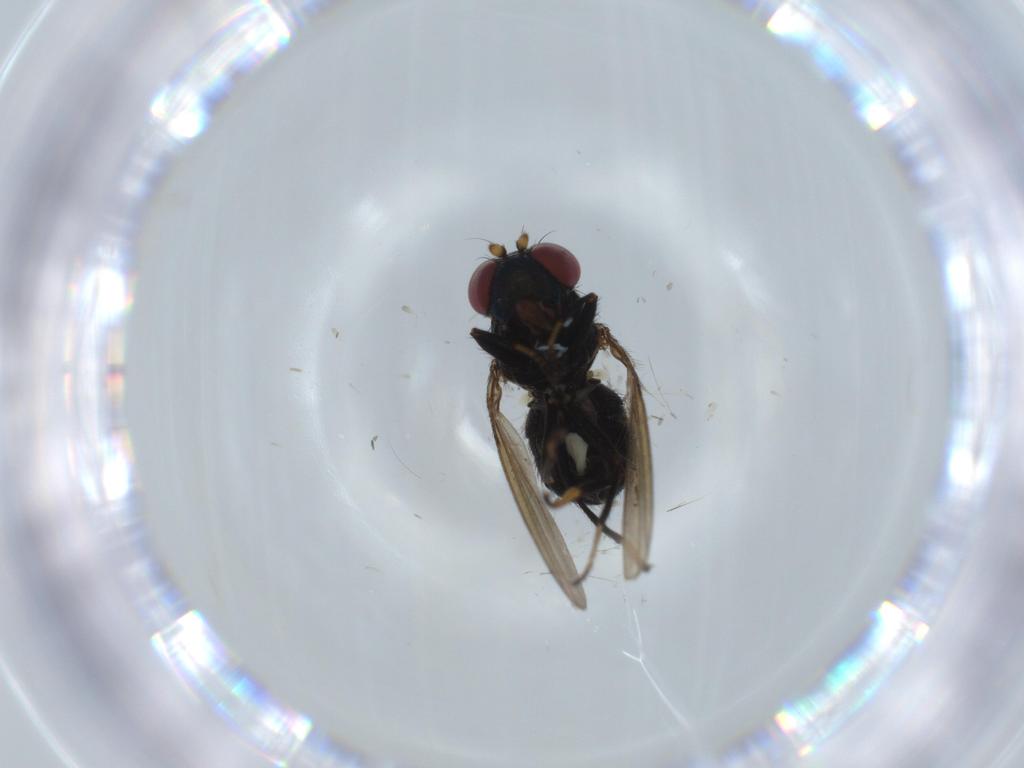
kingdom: Animalia
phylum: Arthropoda
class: Insecta
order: Diptera
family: Ephydridae
